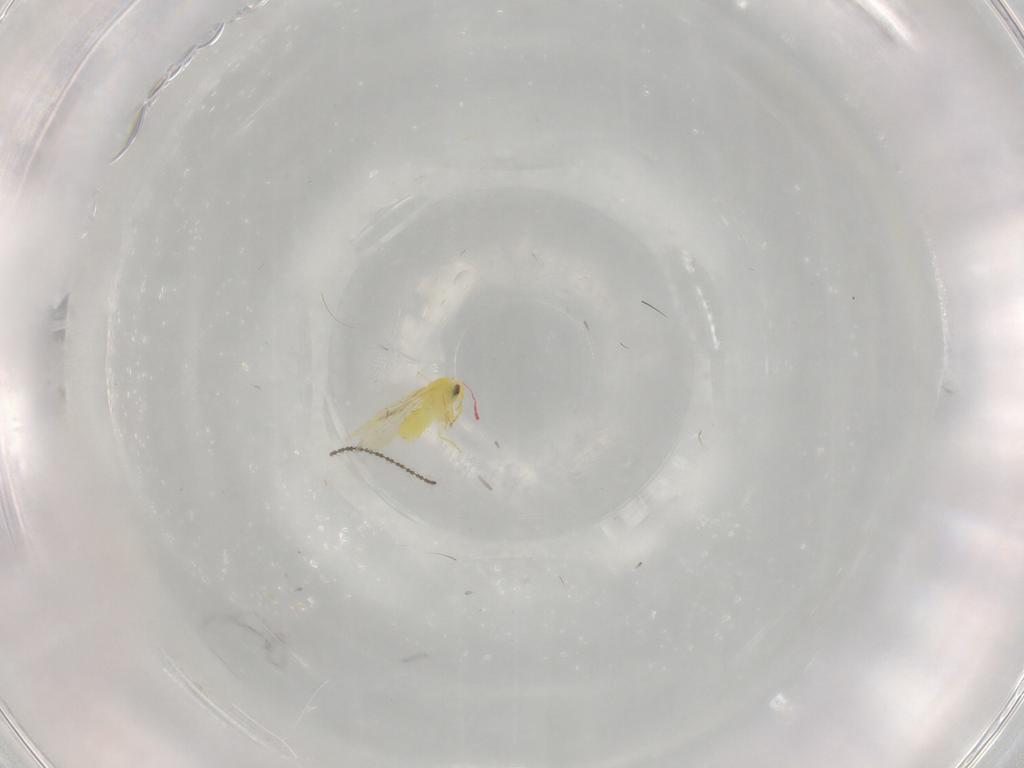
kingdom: Animalia
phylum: Arthropoda
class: Insecta
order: Hemiptera
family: Aleyrodidae
